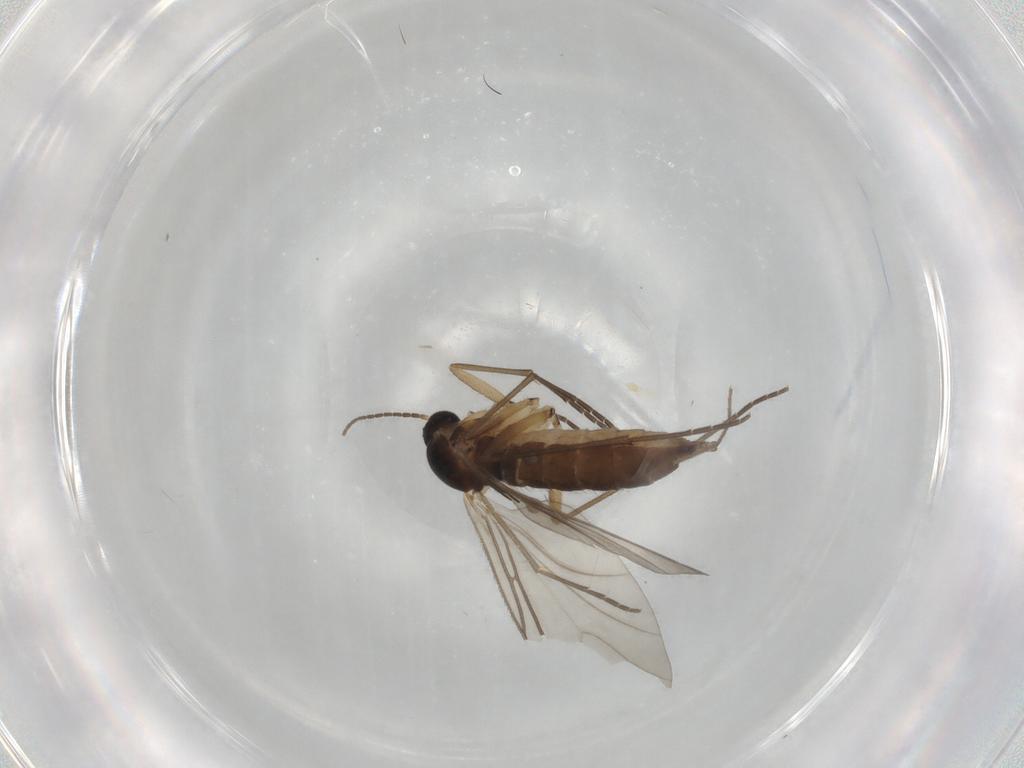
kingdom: Animalia
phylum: Arthropoda
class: Insecta
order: Diptera
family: Sciaridae
